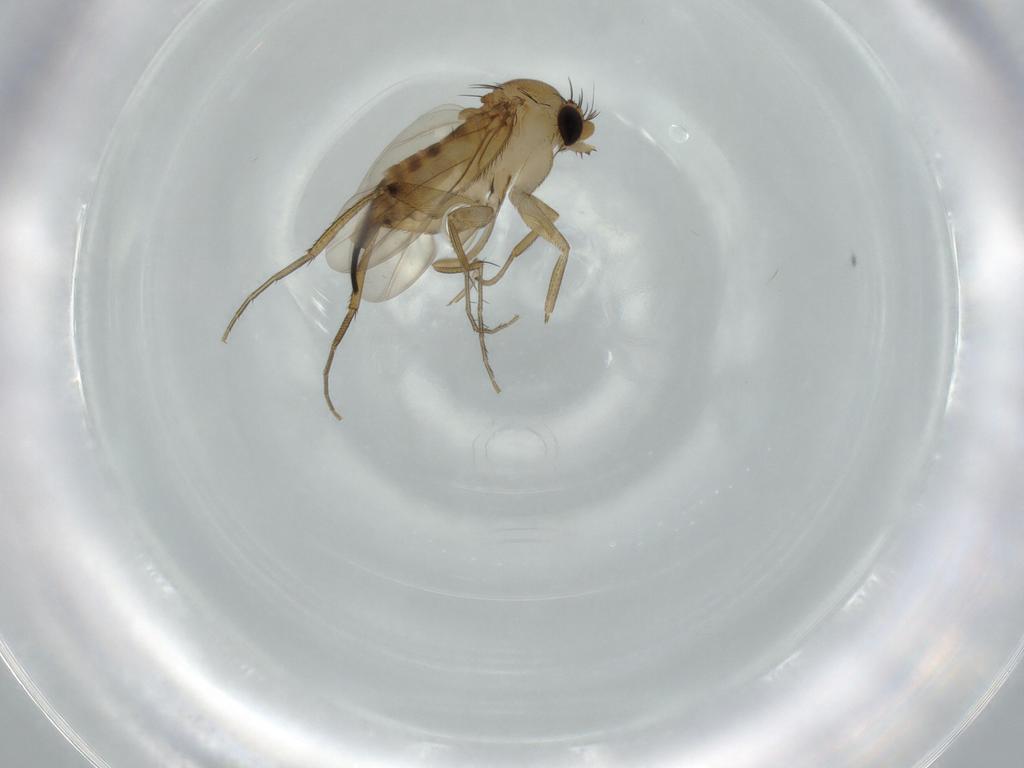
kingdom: Animalia
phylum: Arthropoda
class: Insecta
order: Diptera
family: Phoridae
